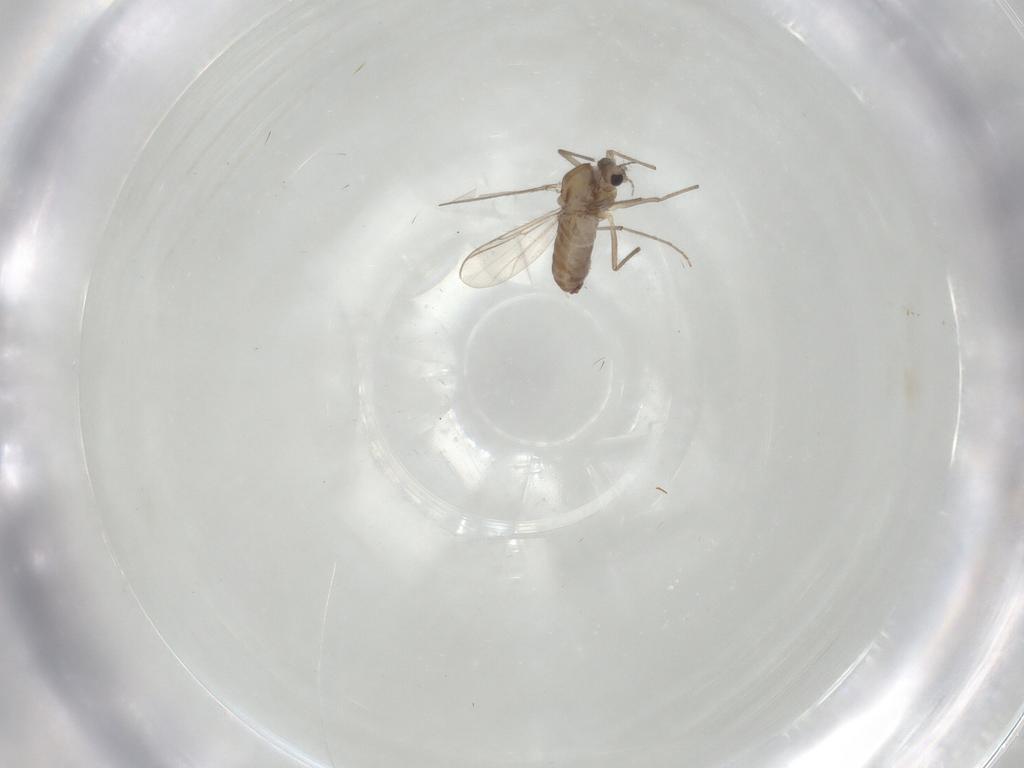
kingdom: Animalia
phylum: Arthropoda
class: Insecta
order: Diptera
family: Chironomidae
